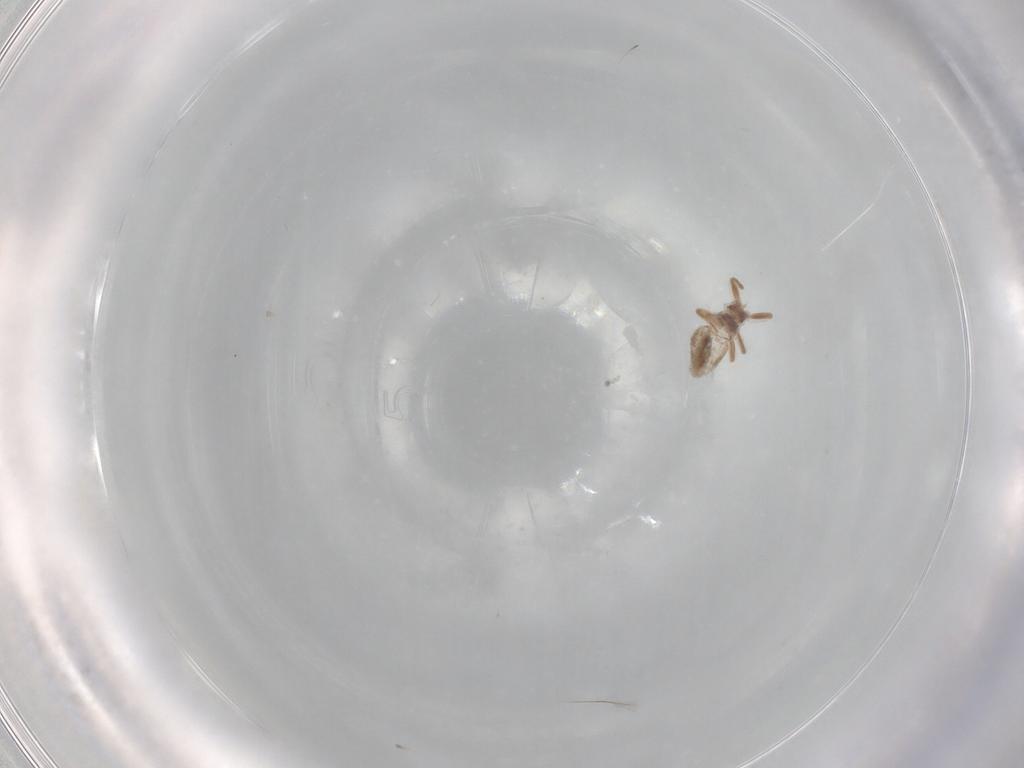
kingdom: Animalia
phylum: Arthropoda
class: Insecta
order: Psocodea
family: Lepidopsocidae
